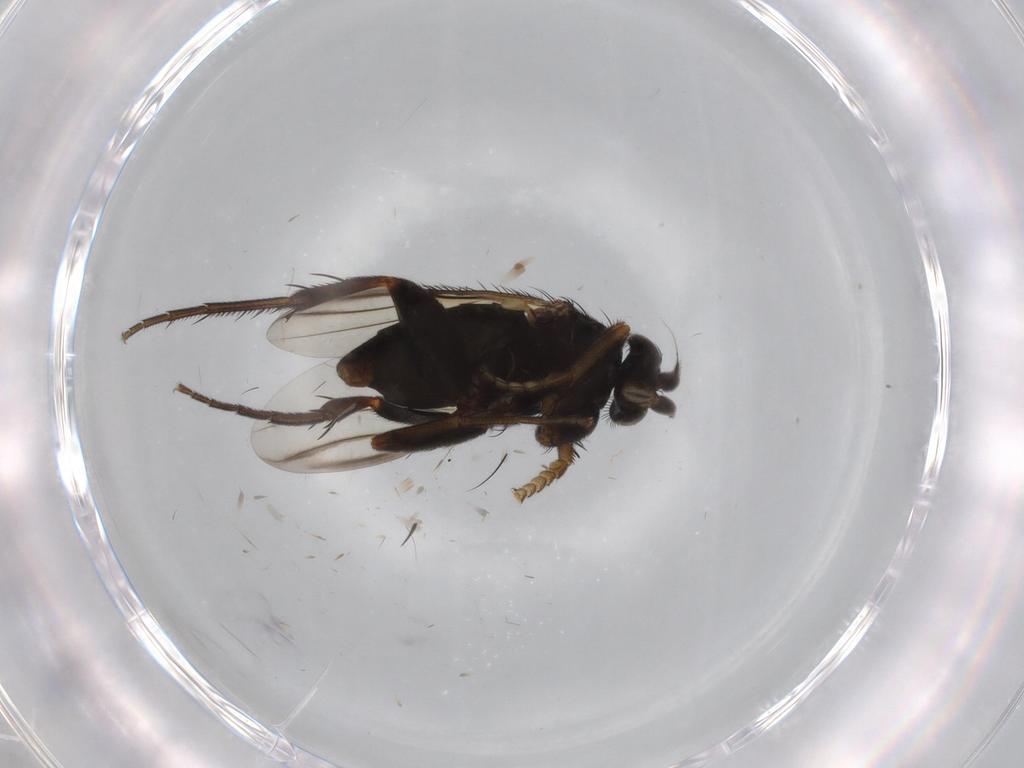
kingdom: Animalia
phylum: Arthropoda
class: Insecta
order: Diptera
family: Phoridae
